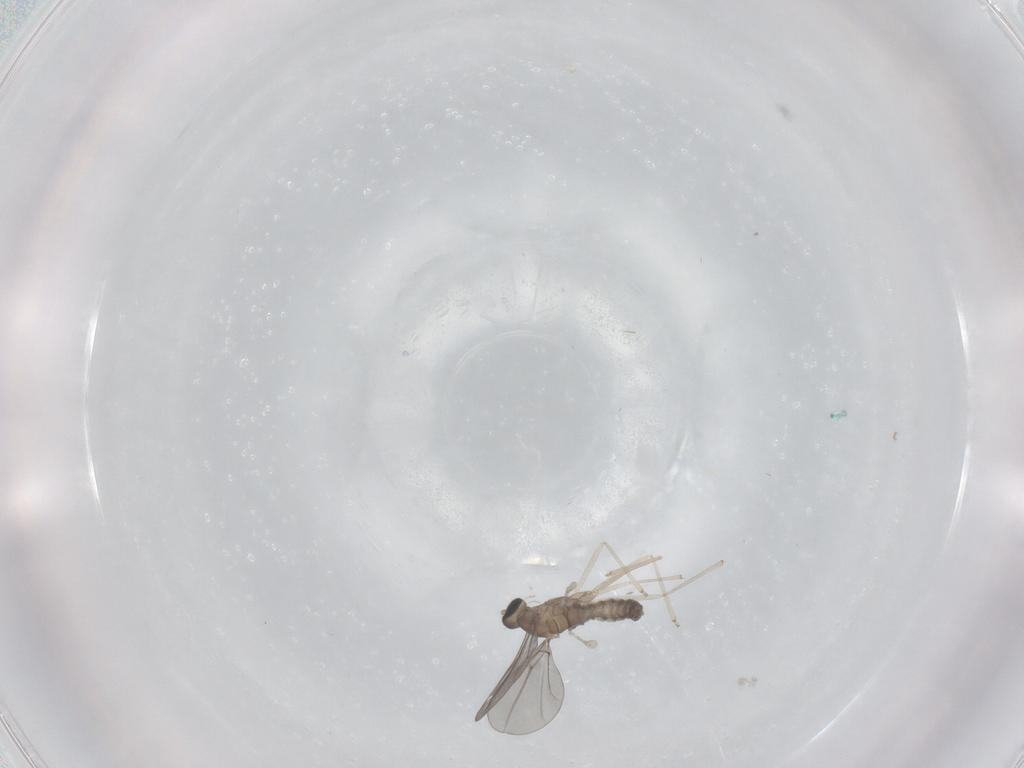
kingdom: Animalia
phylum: Arthropoda
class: Insecta
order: Diptera
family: Cecidomyiidae
